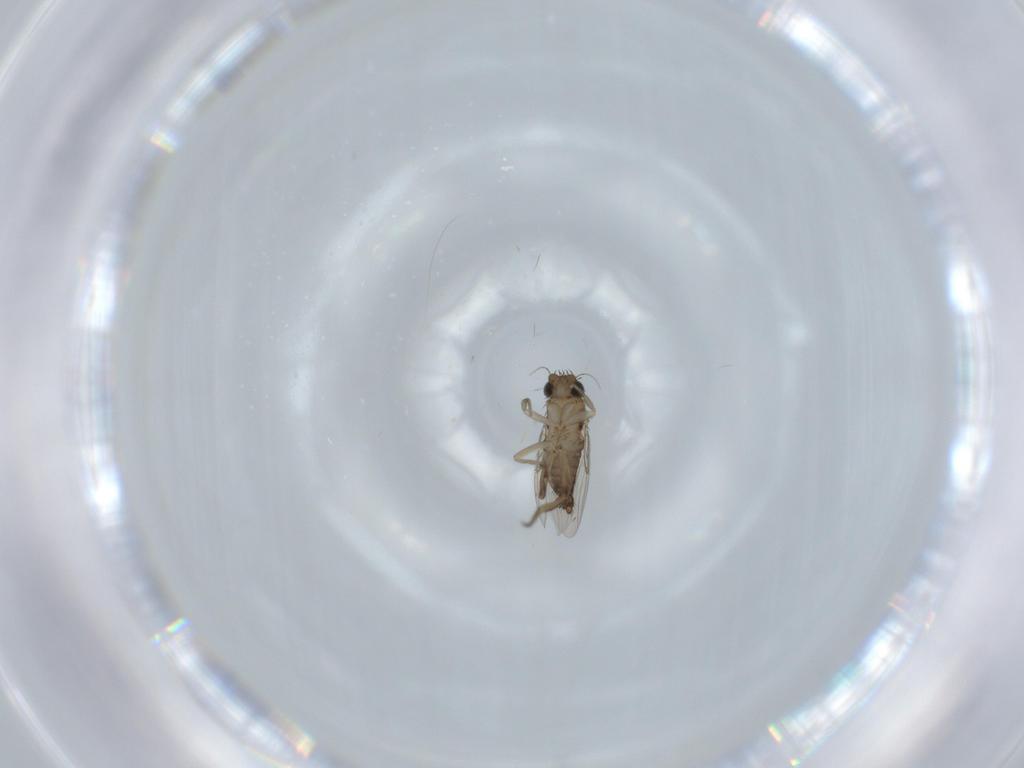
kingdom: Animalia
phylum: Arthropoda
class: Insecta
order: Diptera
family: Phoridae
